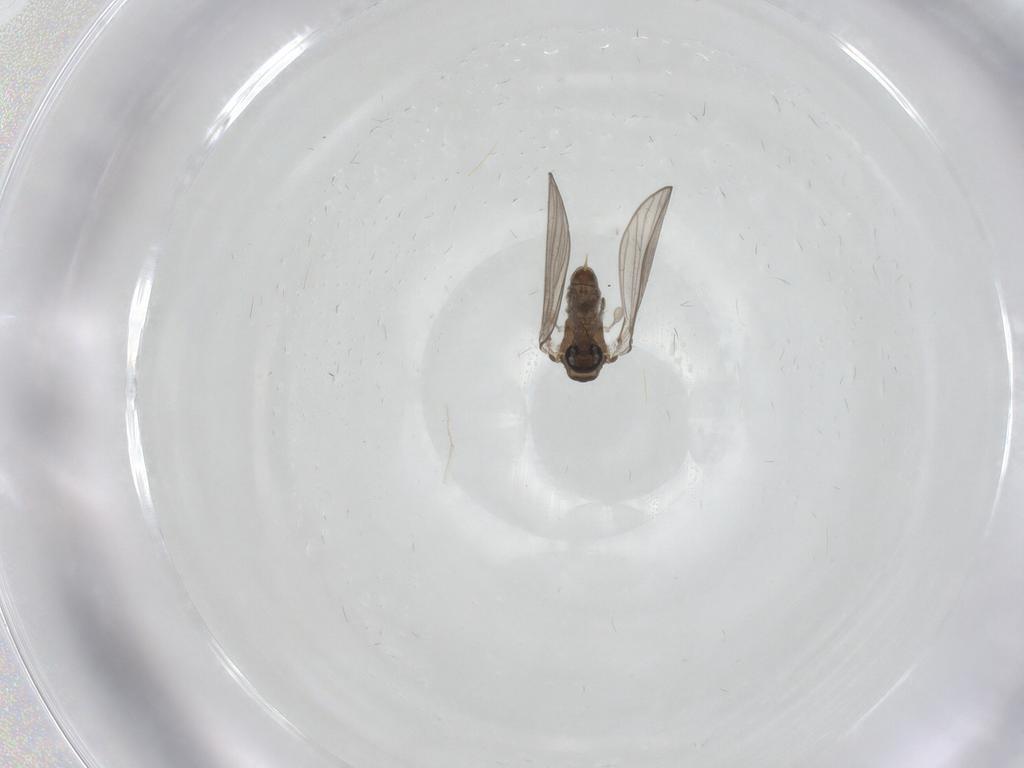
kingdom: Animalia
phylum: Arthropoda
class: Insecta
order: Diptera
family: Psychodidae
